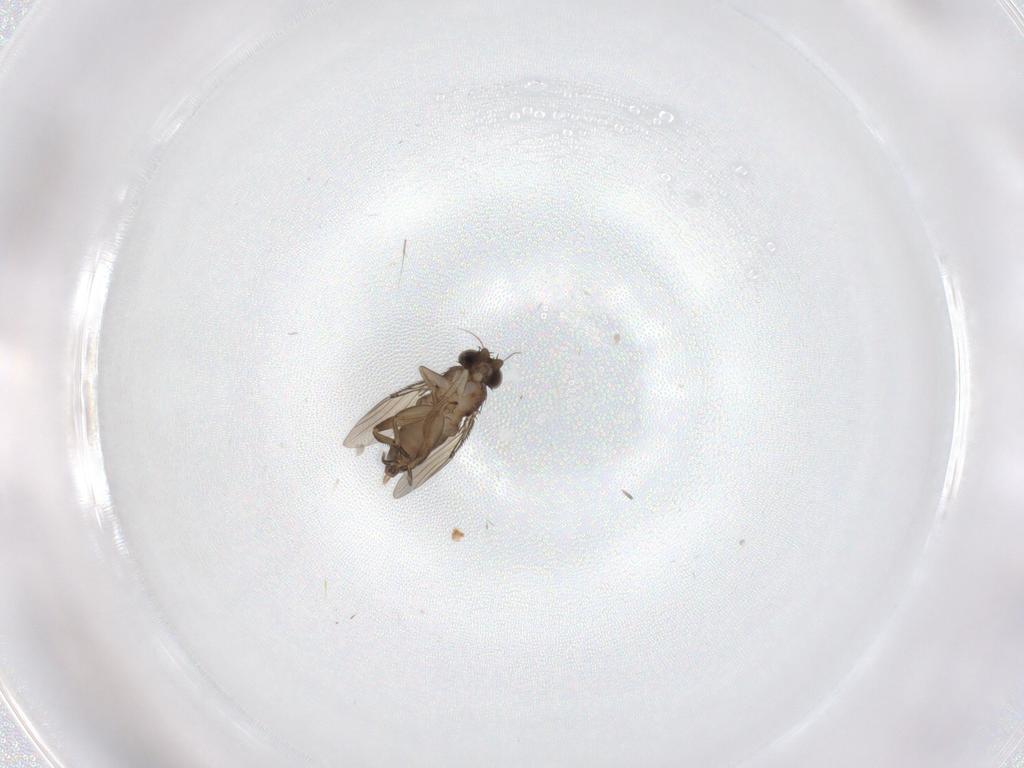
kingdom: Animalia
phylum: Arthropoda
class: Insecta
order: Diptera
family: Phoridae
